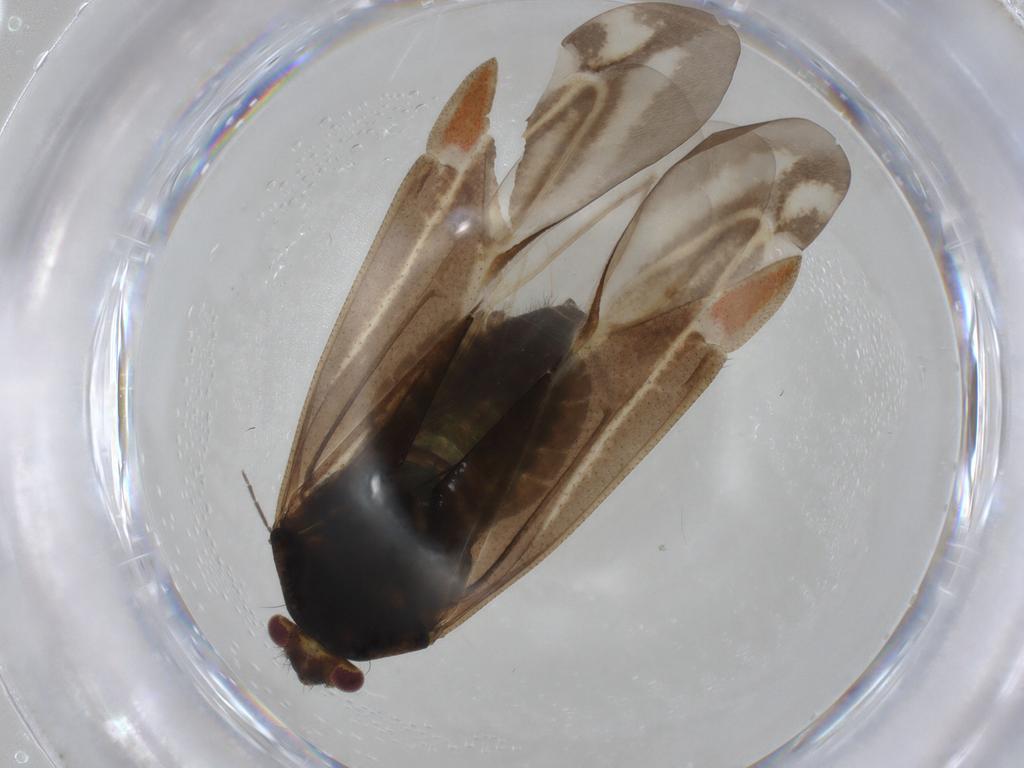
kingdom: Animalia
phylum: Arthropoda
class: Insecta
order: Hemiptera
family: Miridae
